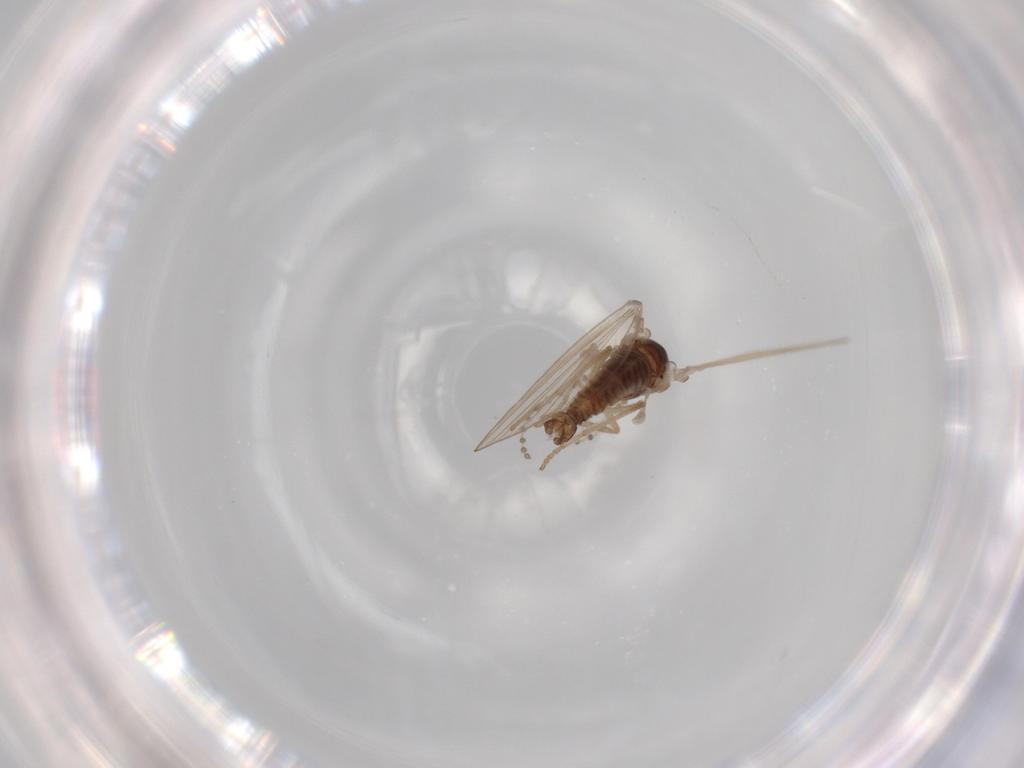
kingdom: Animalia
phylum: Arthropoda
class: Insecta
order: Diptera
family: Psychodidae
